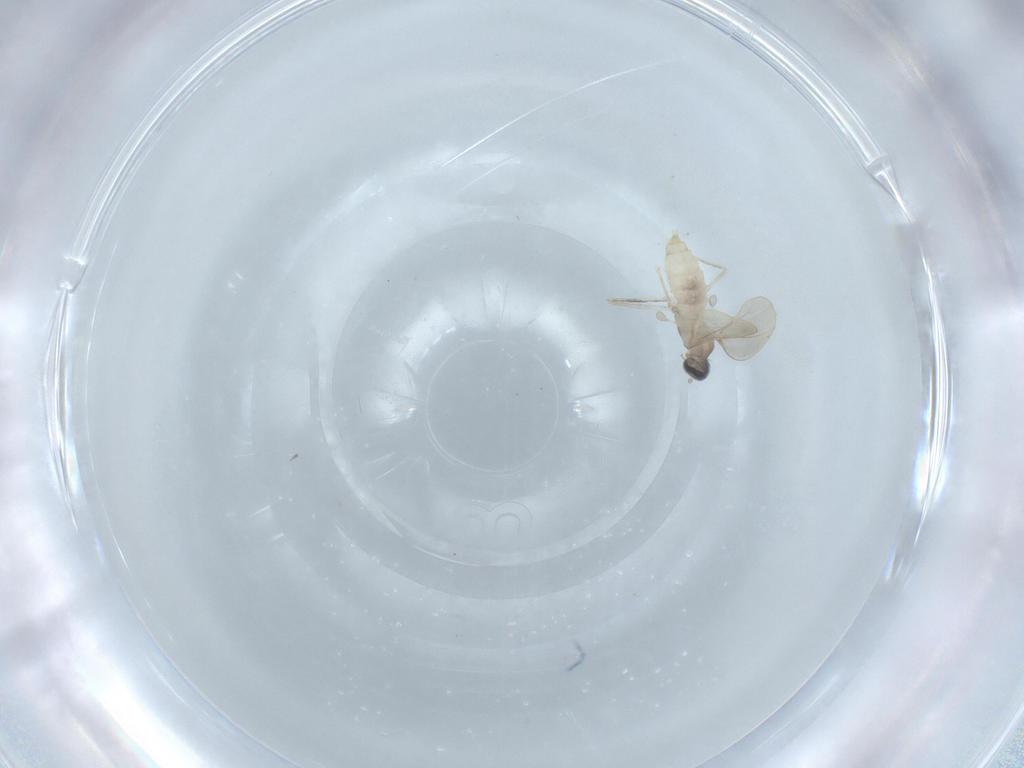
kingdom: Animalia
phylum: Arthropoda
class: Insecta
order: Diptera
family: Cecidomyiidae
